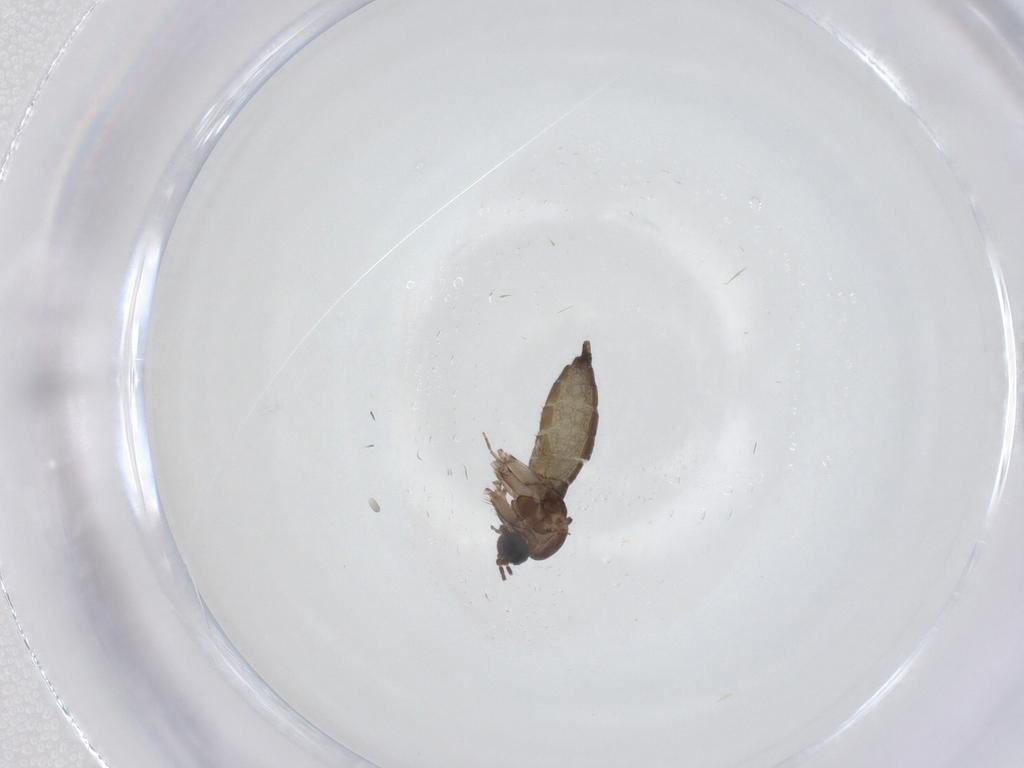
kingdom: Animalia
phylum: Arthropoda
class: Insecta
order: Diptera
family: Sciaridae
